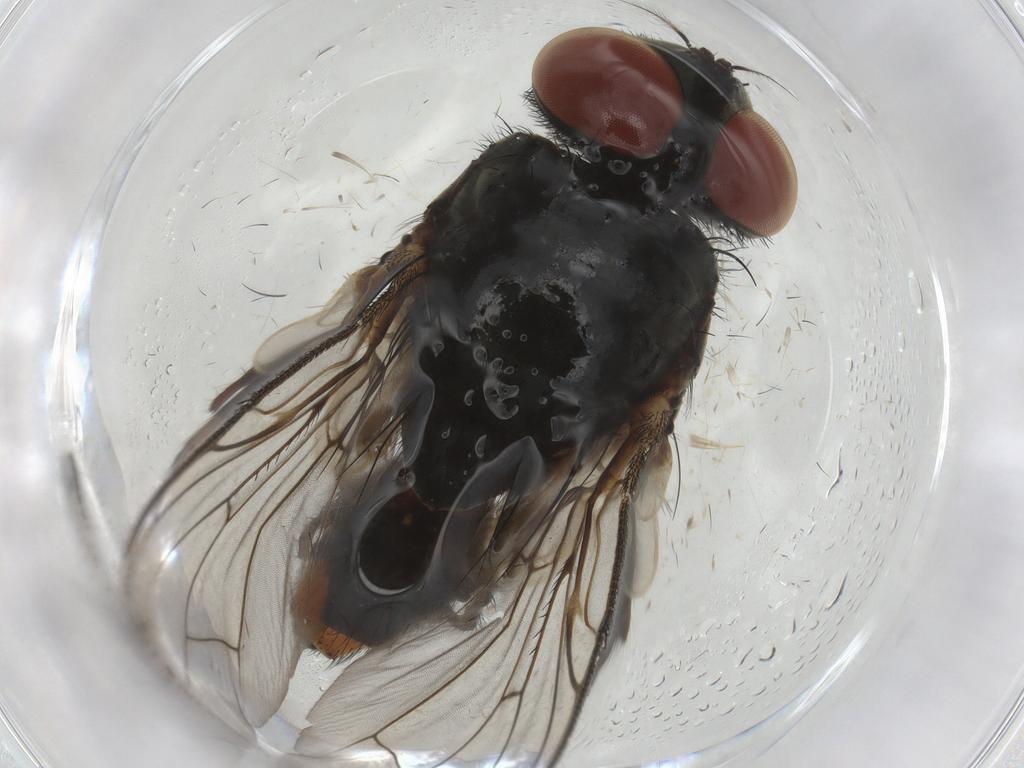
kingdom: Animalia
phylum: Arthropoda
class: Insecta
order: Diptera
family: Sarcophagidae
